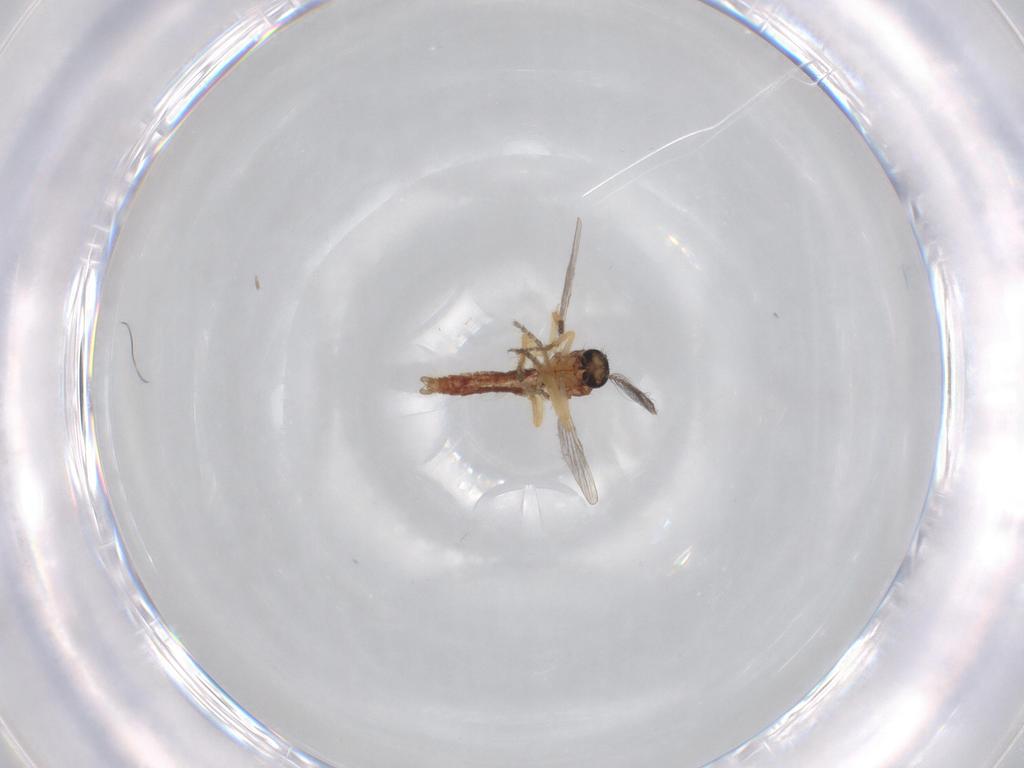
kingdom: Animalia
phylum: Arthropoda
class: Insecta
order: Diptera
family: Ceratopogonidae
